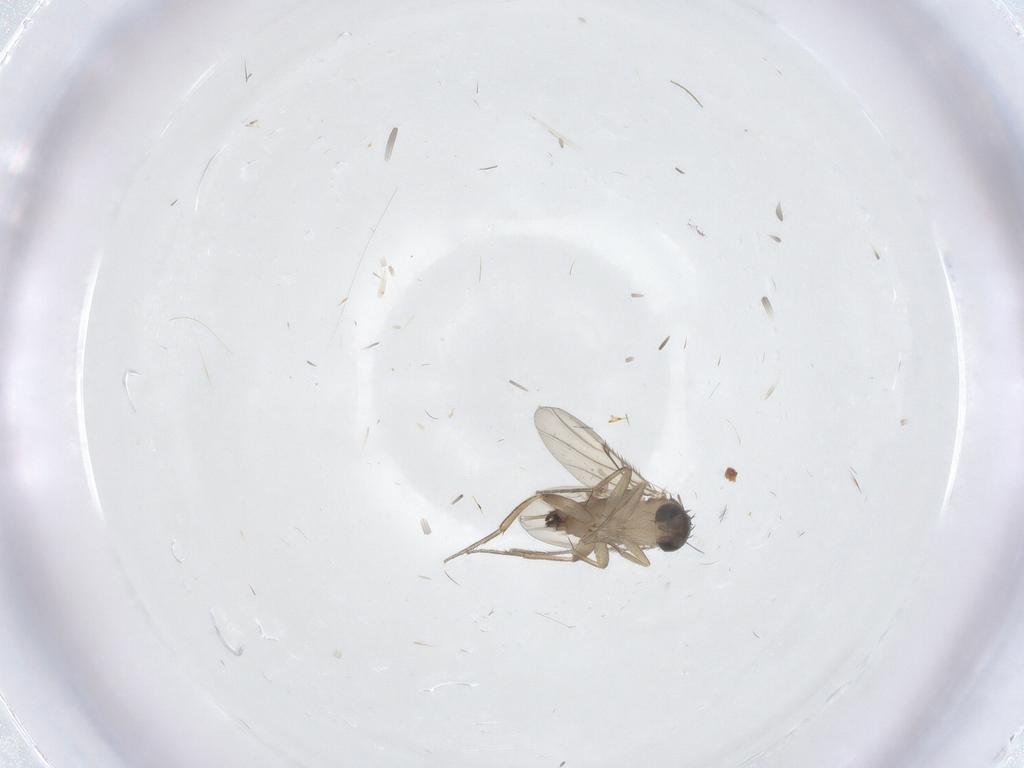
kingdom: Animalia
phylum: Arthropoda
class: Insecta
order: Diptera
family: Phoridae
